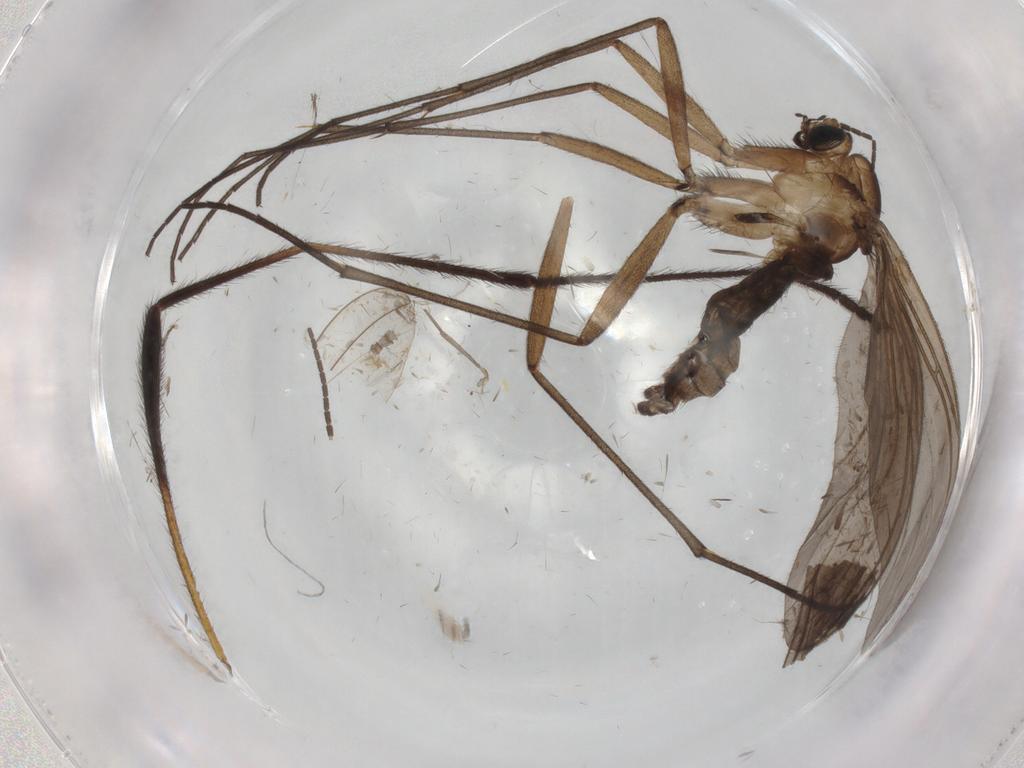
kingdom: Animalia
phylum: Arthropoda
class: Insecta
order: Diptera
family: Limoniidae
